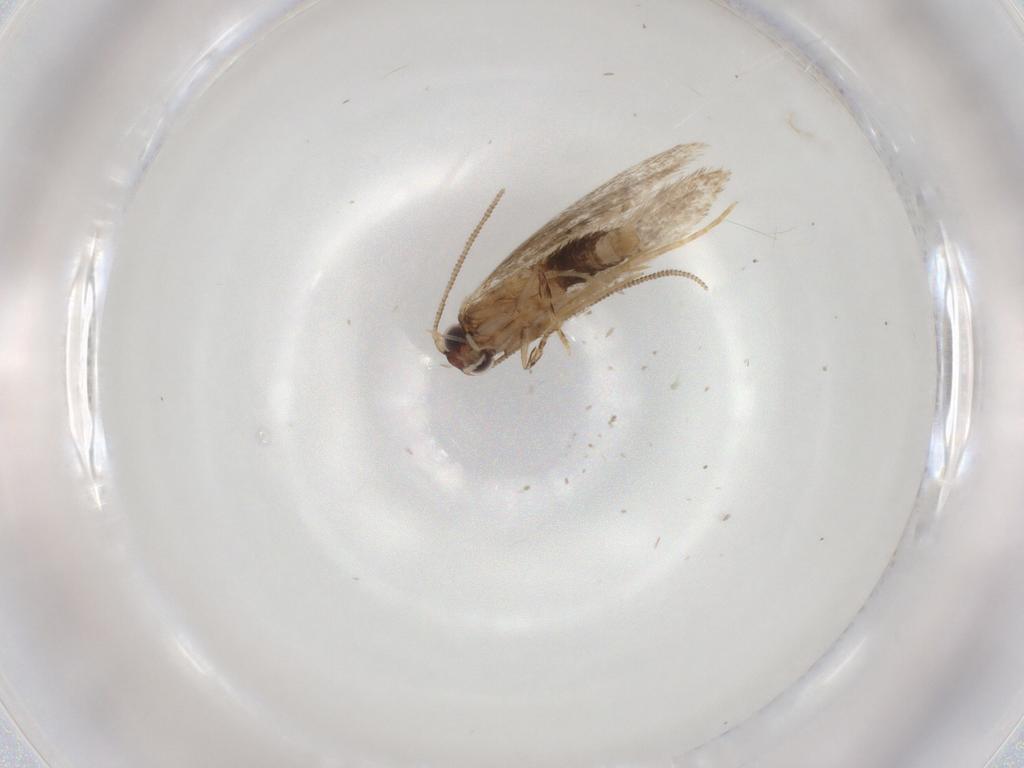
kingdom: Animalia
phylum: Arthropoda
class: Insecta
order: Lepidoptera
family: Tineidae
